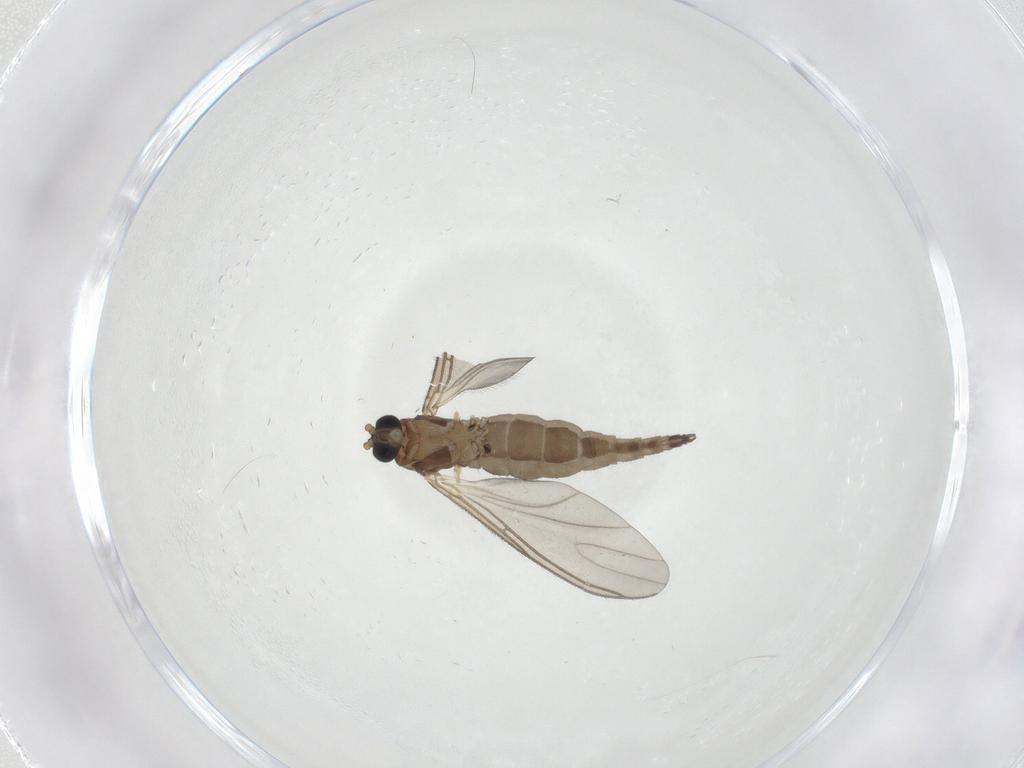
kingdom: Animalia
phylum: Arthropoda
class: Insecta
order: Diptera
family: Sciaridae
